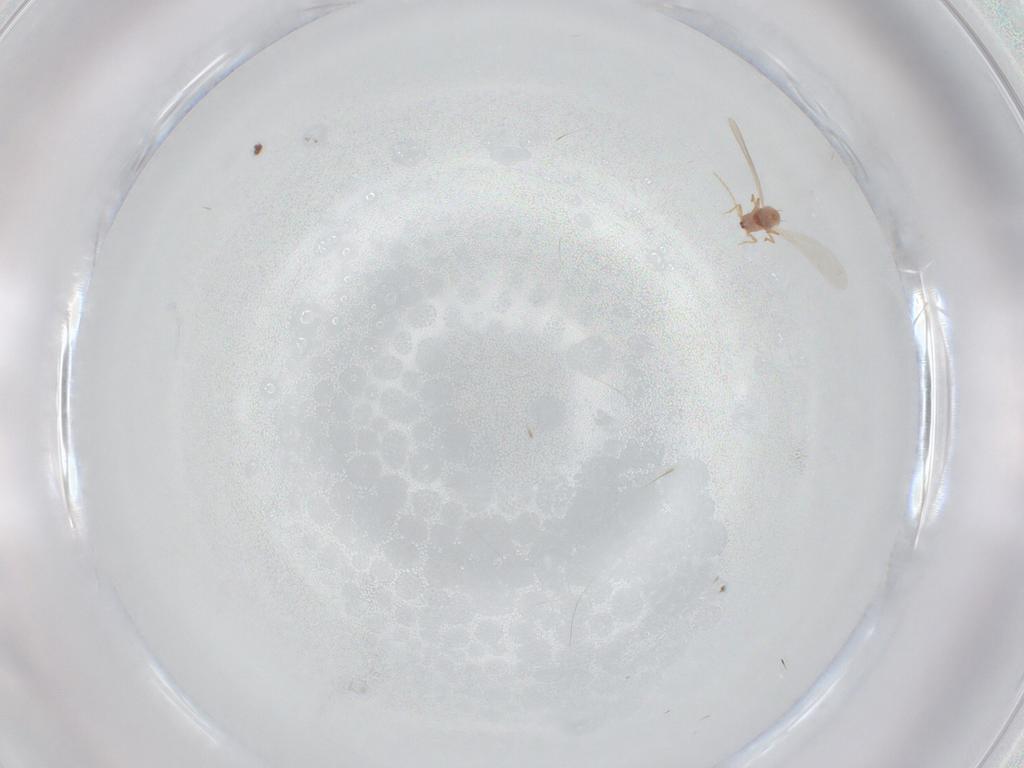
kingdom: Animalia
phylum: Arthropoda
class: Insecta
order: Hemiptera
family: Pseudococcidae
